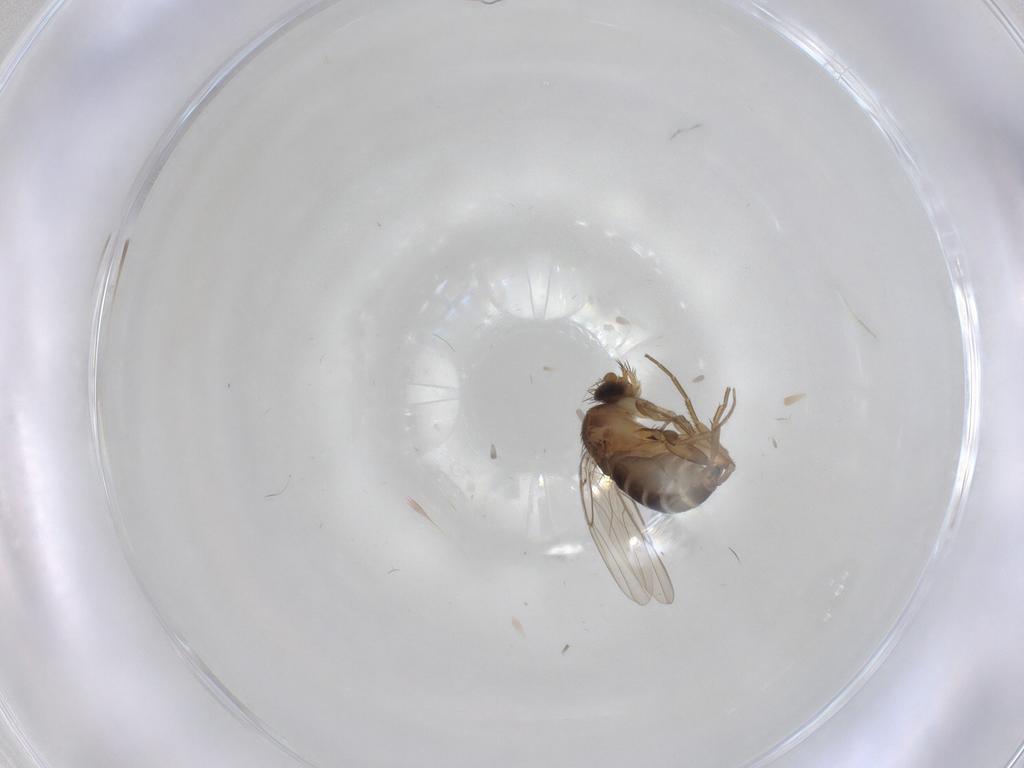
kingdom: Animalia
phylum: Arthropoda
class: Insecta
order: Diptera
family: Phoridae
